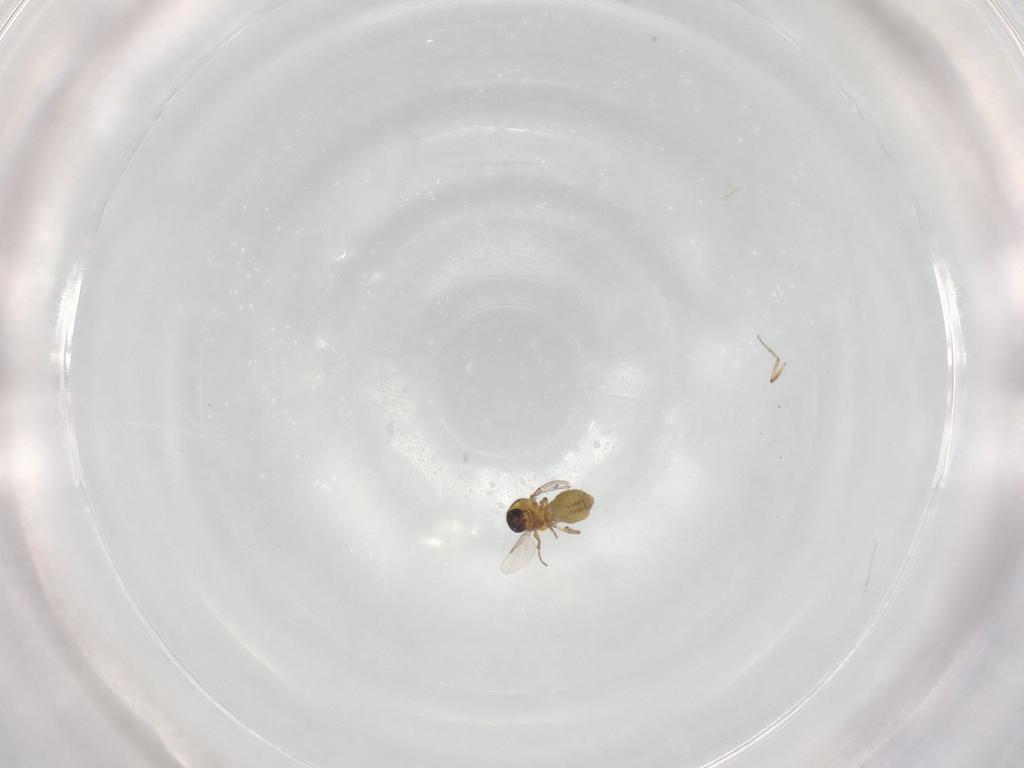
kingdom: Animalia
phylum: Arthropoda
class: Insecta
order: Diptera
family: Ceratopogonidae
